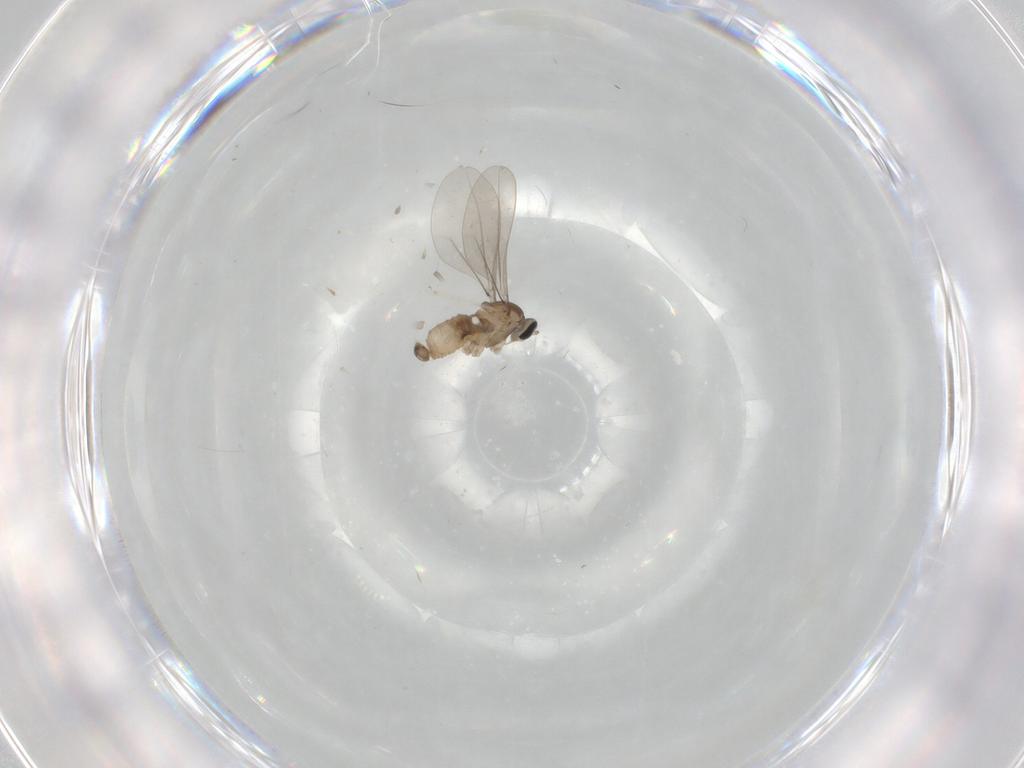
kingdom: Animalia
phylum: Arthropoda
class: Insecta
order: Diptera
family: Cecidomyiidae
